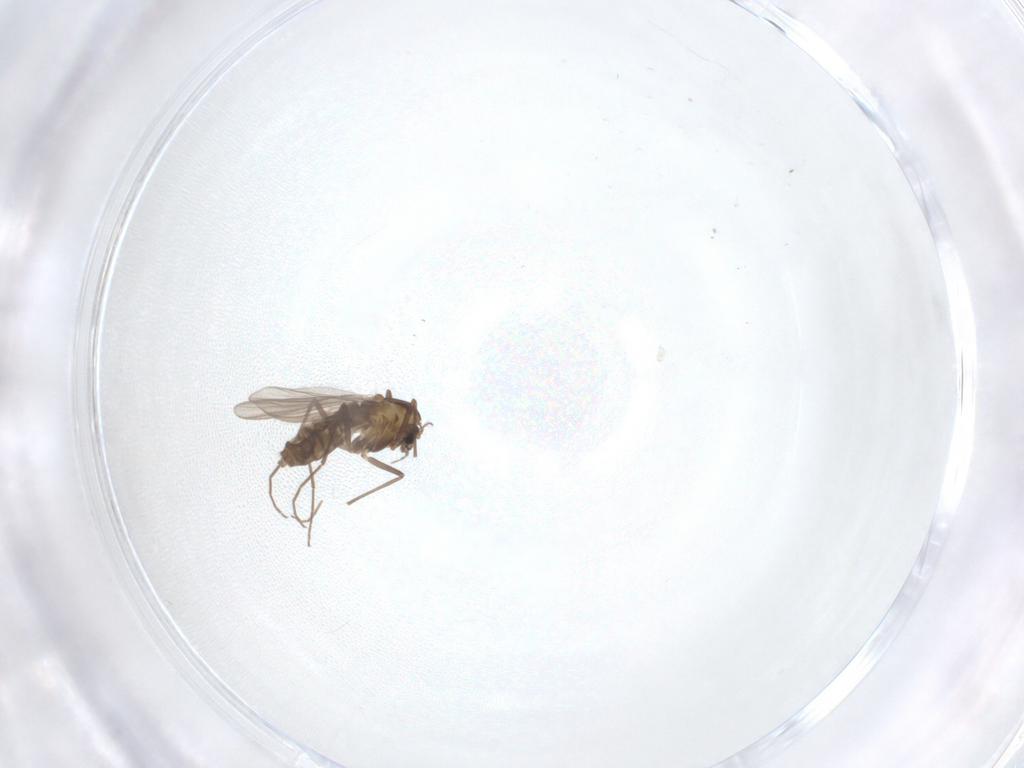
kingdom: Animalia
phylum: Arthropoda
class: Insecta
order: Diptera
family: Chironomidae
